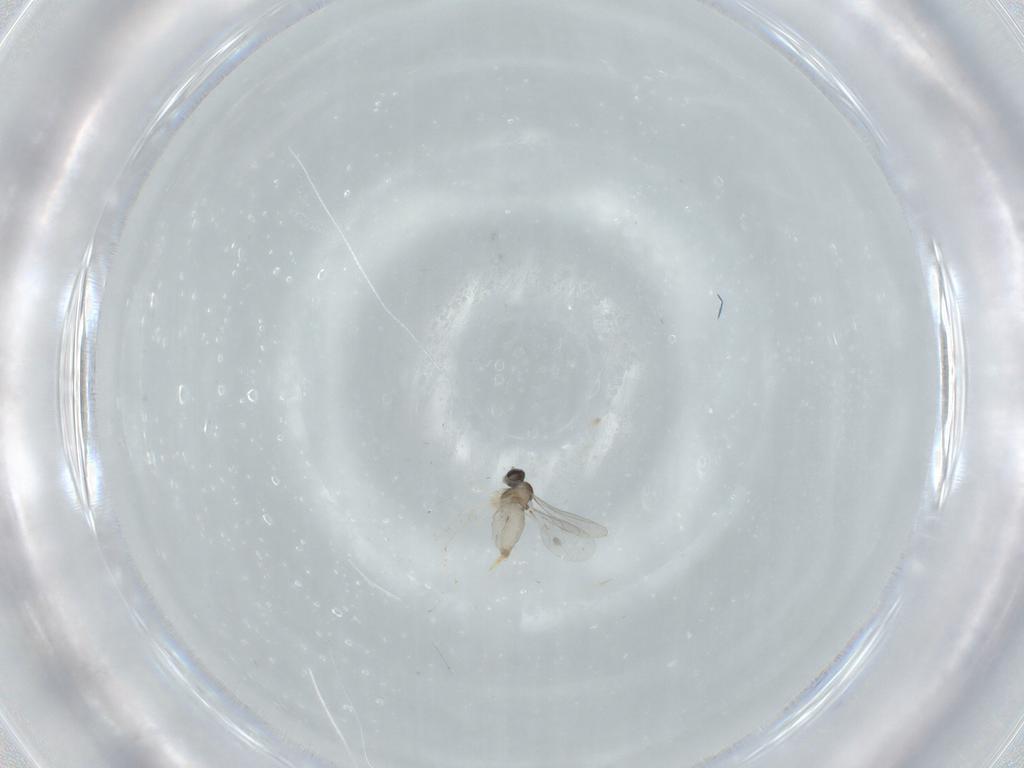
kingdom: Animalia
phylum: Arthropoda
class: Insecta
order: Diptera
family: Cecidomyiidae
